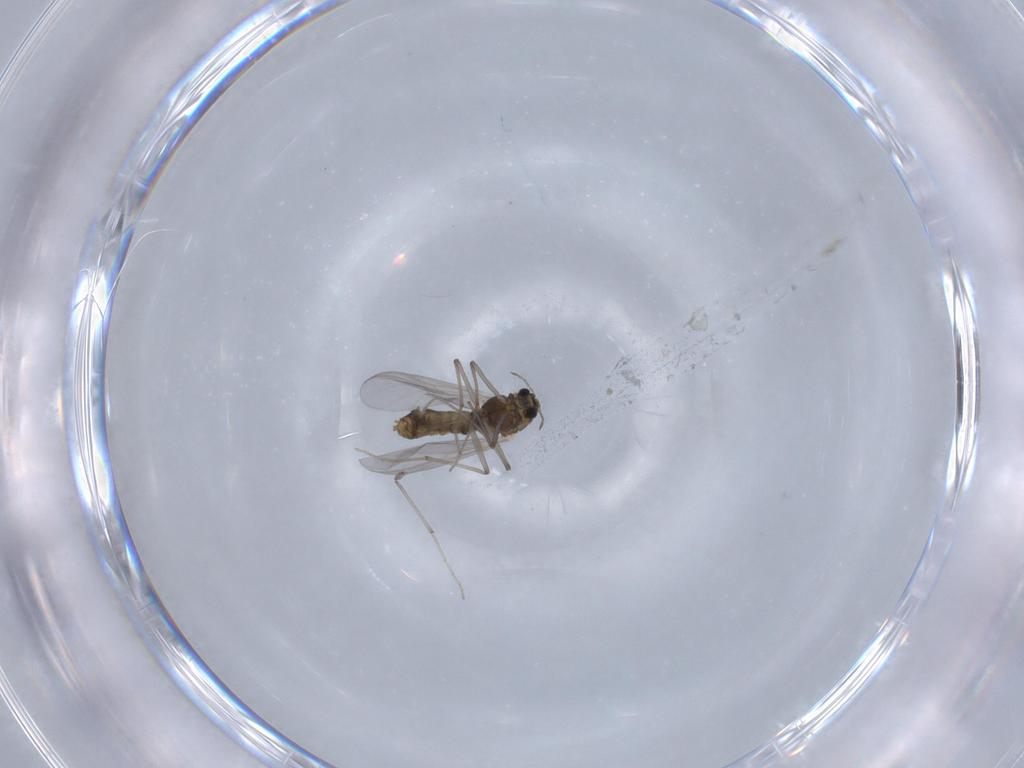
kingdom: Animalia
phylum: Arthropoda
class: Insecta
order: Diptera
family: Chironomidae
